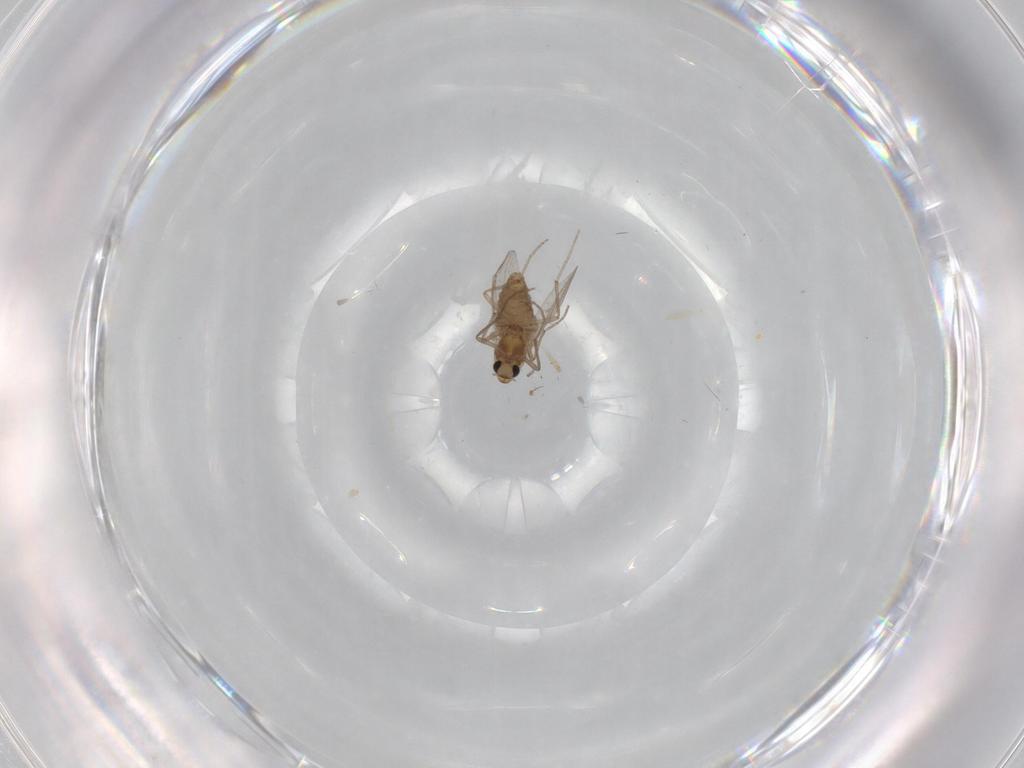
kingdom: Animalia
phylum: Arthropoda
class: Insecta
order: Diptera
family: Chironomidae
